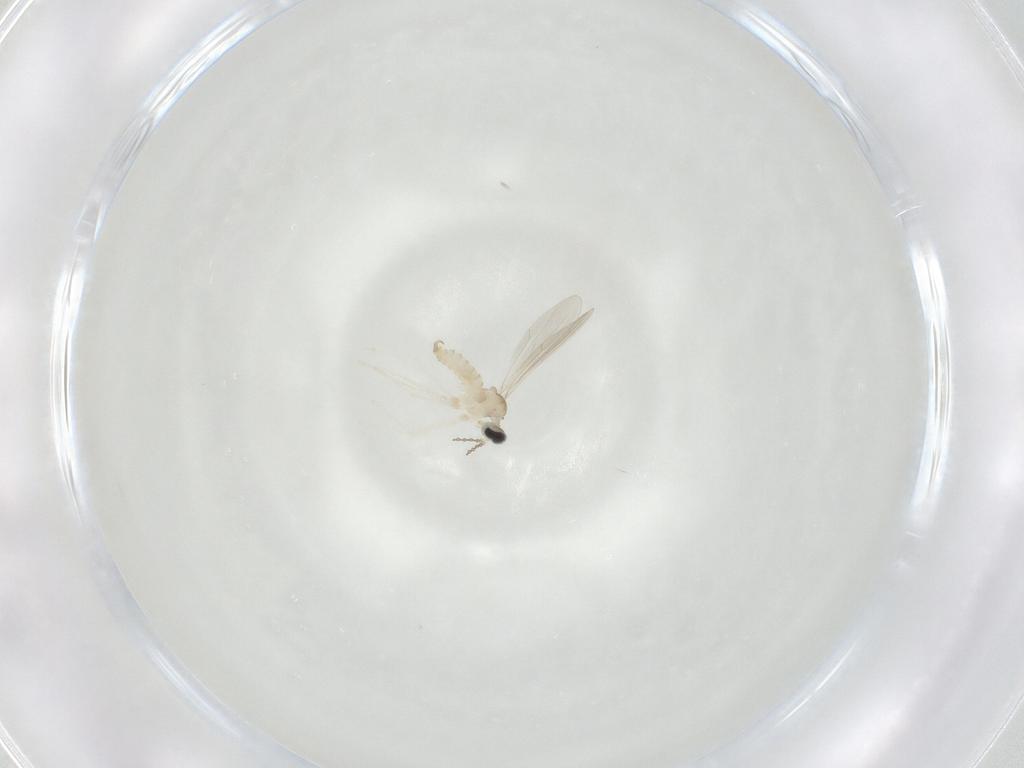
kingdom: Animalia
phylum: Arthropoda
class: Insecta
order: Diptera
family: Cecidomyiidae
